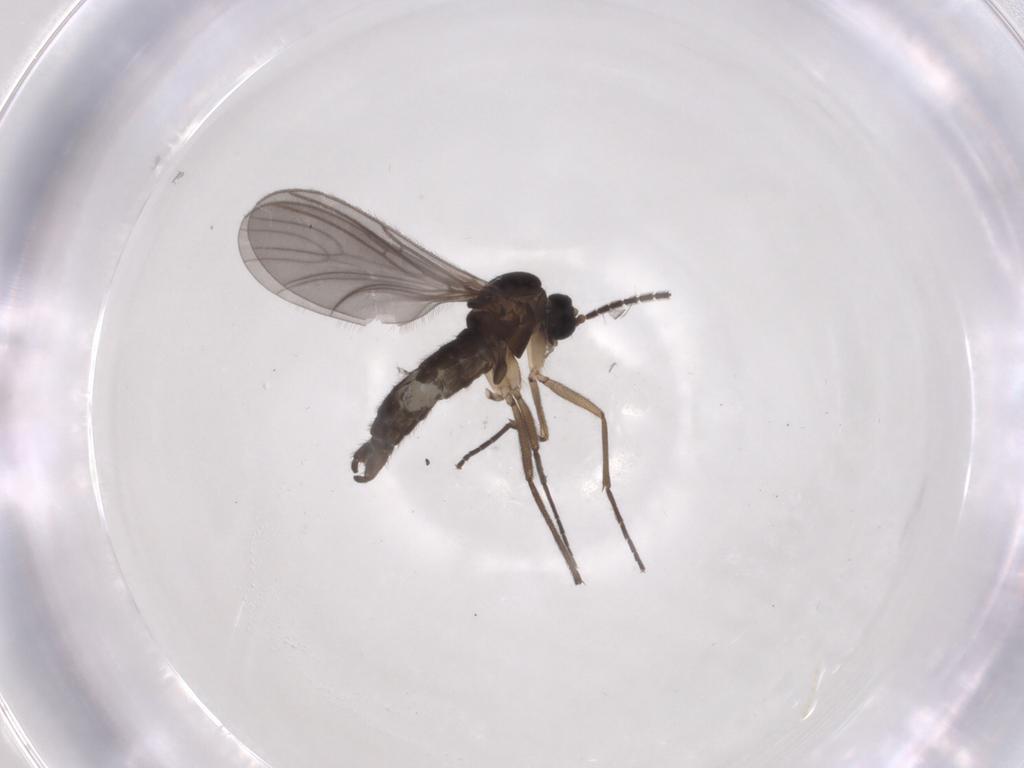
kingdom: Animalia
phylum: Arthropoda
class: Insecta
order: Diptera
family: Sciaridae
